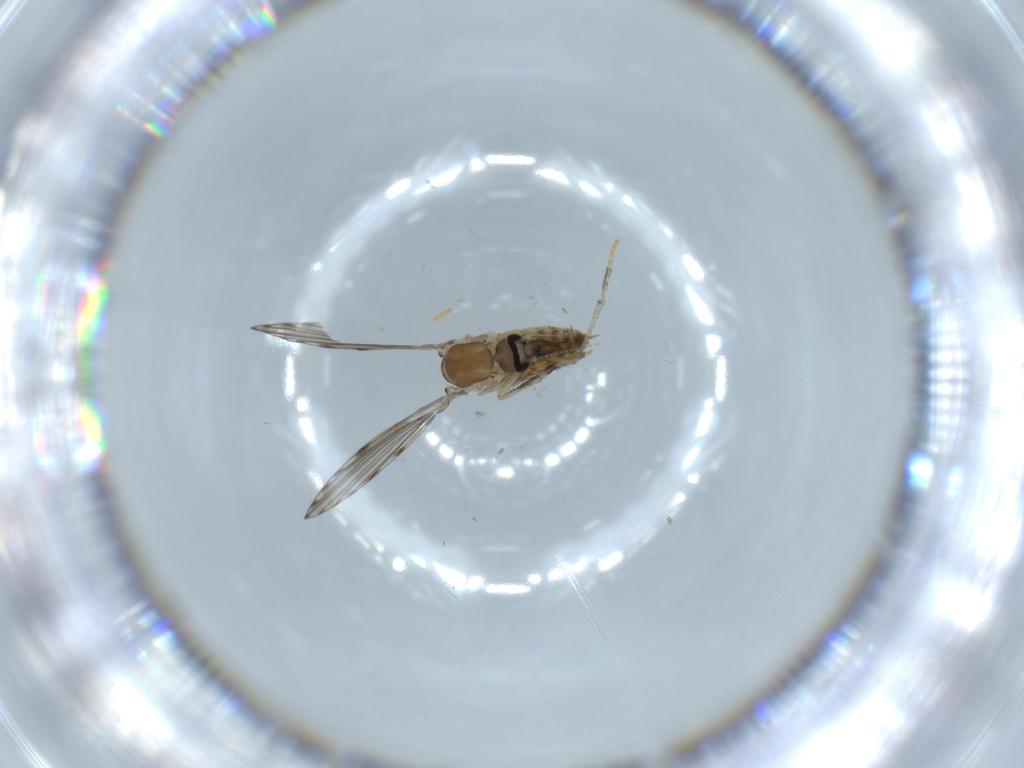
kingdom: Animalia
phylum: Arthropoda
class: Insecta
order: Diptera
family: Psychodidae
